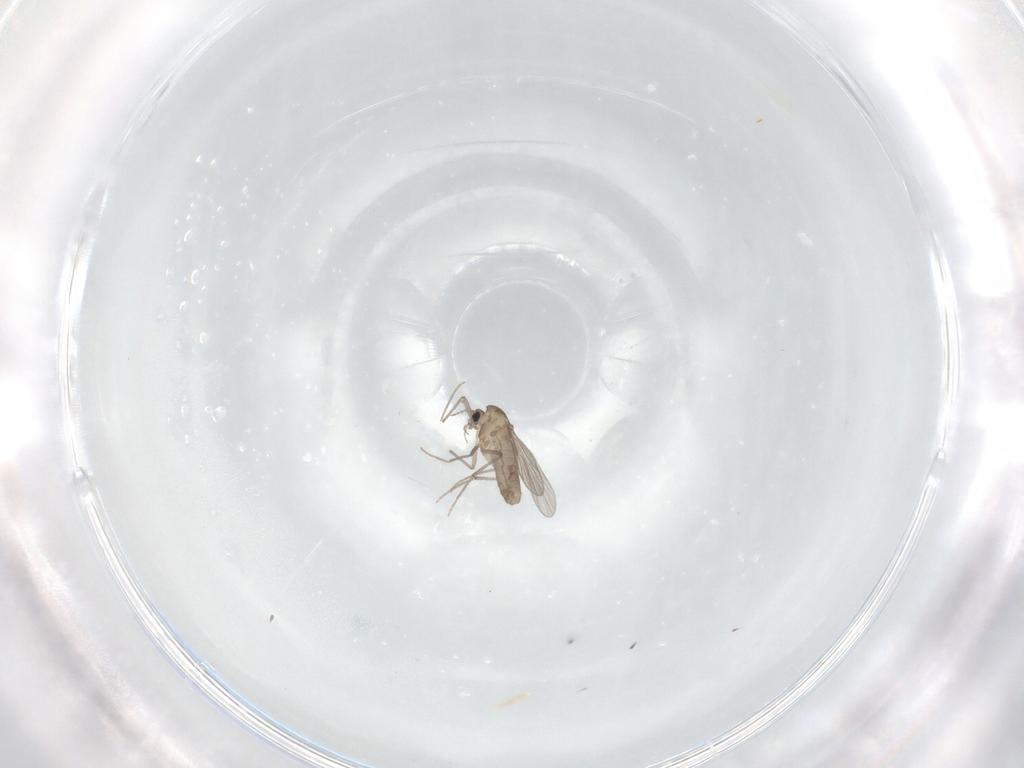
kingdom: Animalia
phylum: Arthropoda
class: Insecta
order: Diptera
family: Chironomidae
